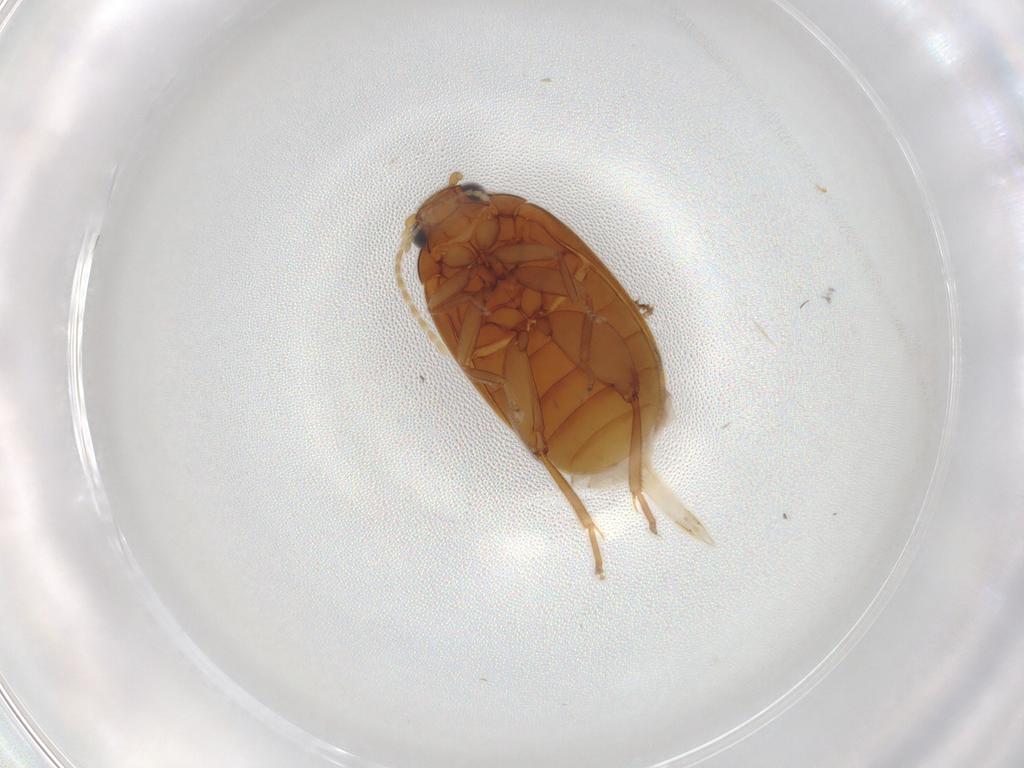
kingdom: Animalia
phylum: Arthropoda
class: Insecta
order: Coleoptera
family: Scirtidae
